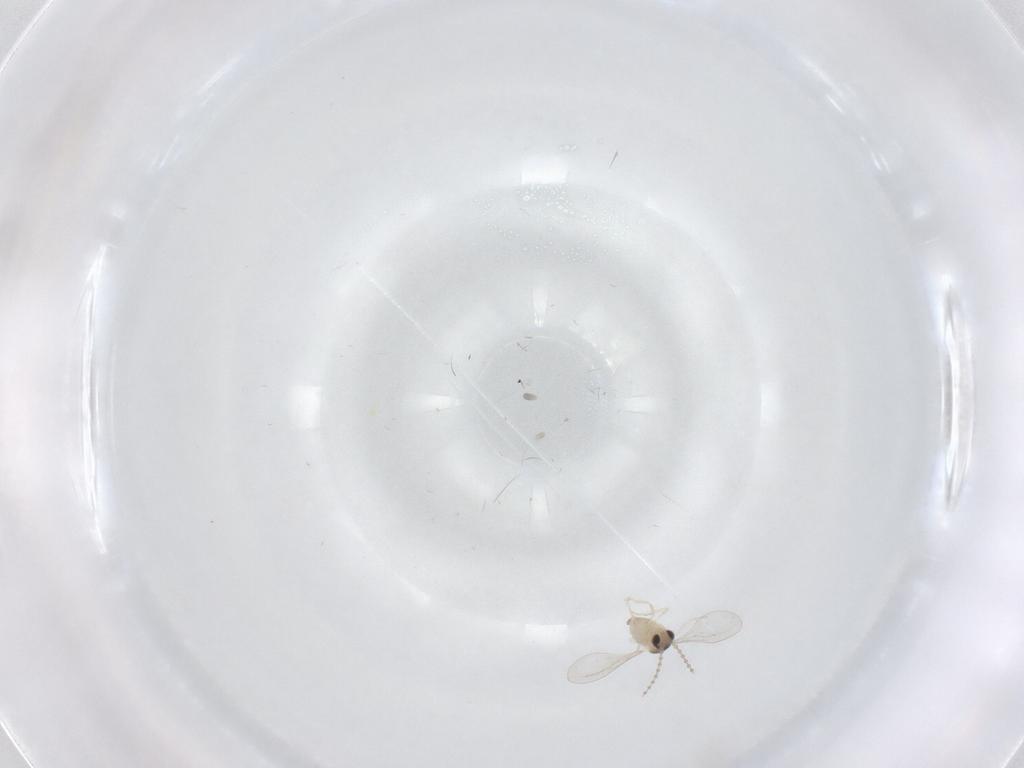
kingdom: Animalia
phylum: Arthropoda
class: Insecta
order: Diptera
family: Cecidomyiidae
